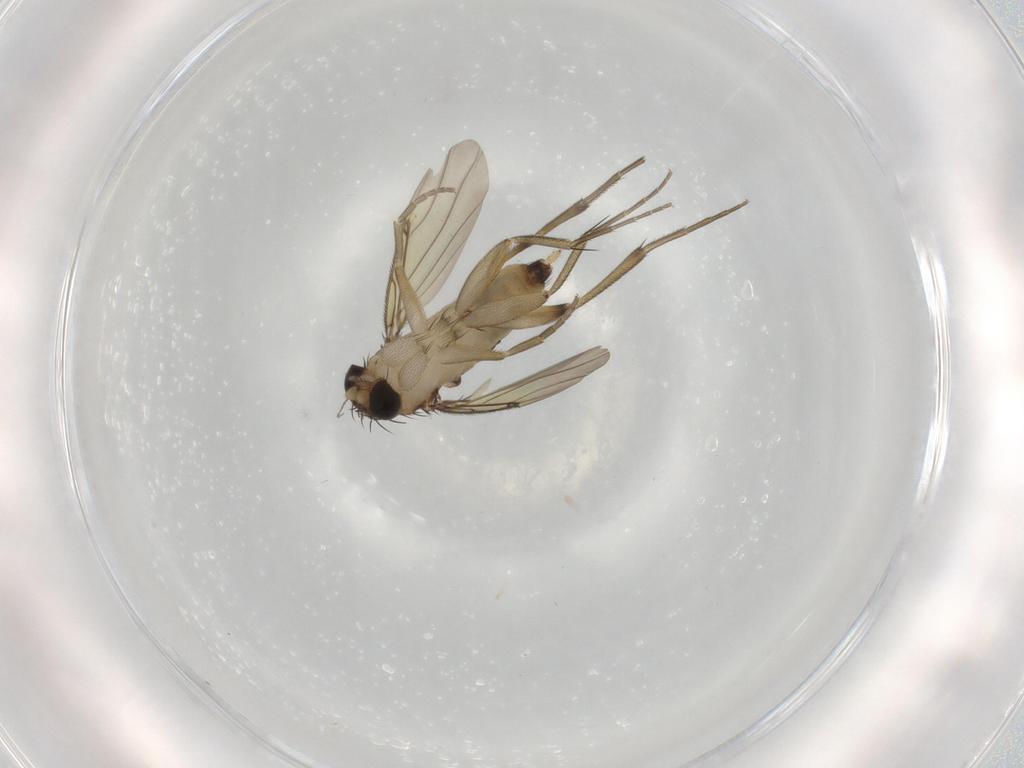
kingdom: Animalia
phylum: Arthropoda
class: Insecta
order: Diptera
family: Phoridae
